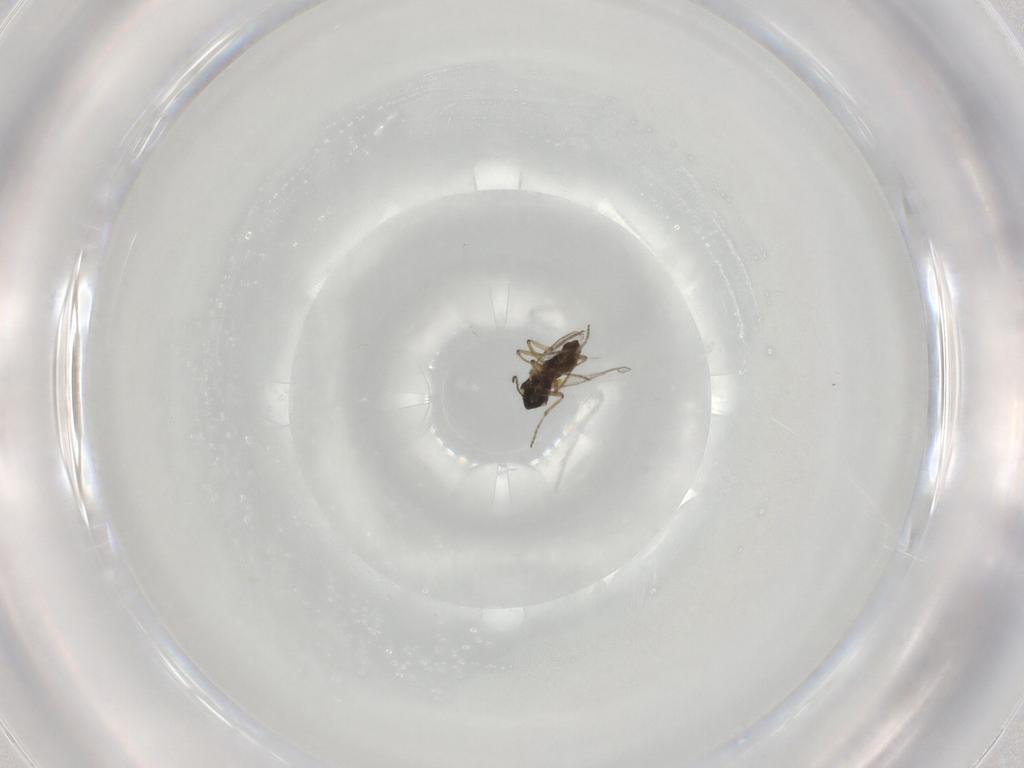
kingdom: Animalia
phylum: Arthropoda
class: Insecta
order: Diptera
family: Ceratopogonidae
